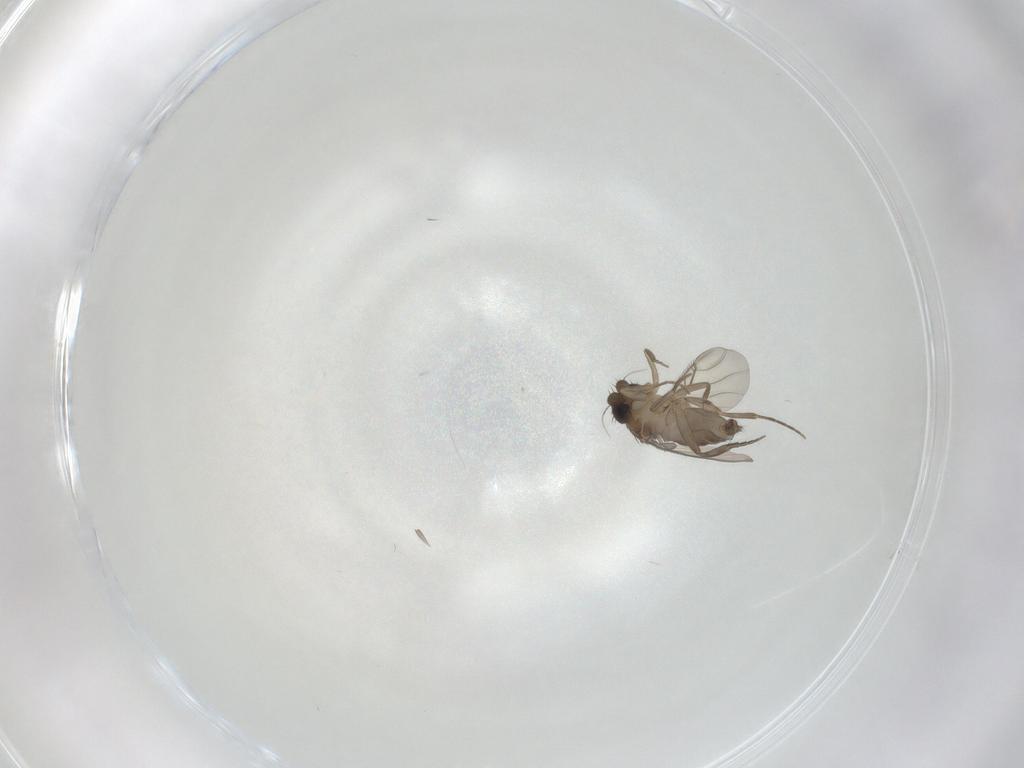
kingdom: Animalia
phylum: Arthropoda
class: Insecta
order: Diptera
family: Phoridae
